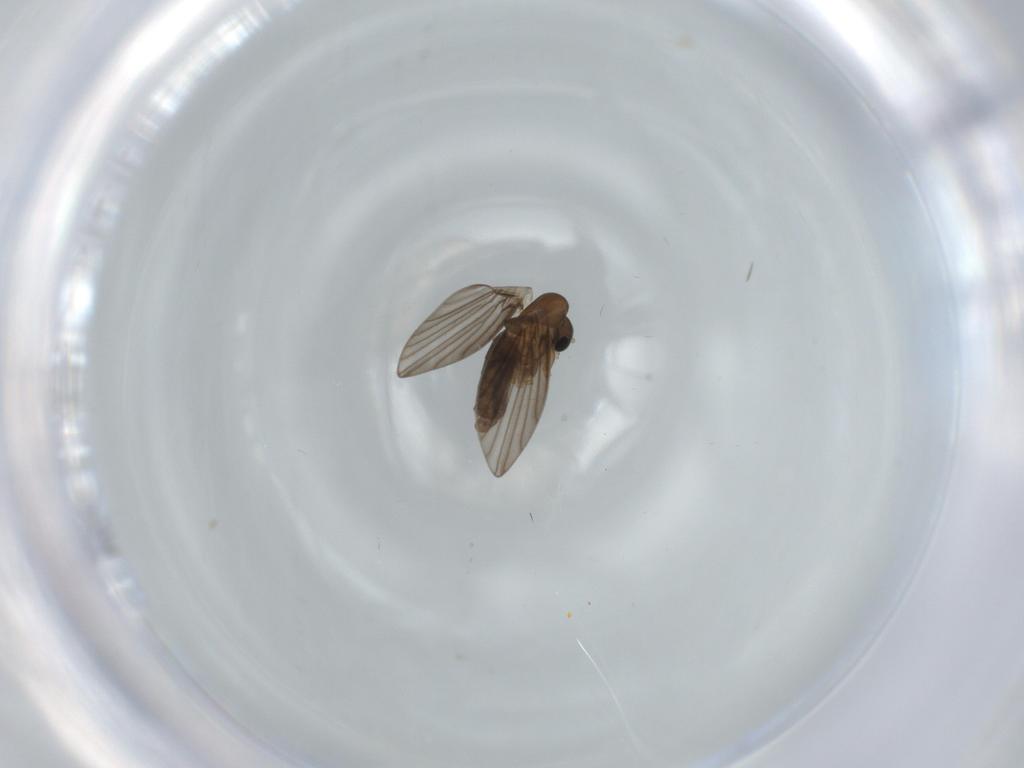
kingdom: Animalia
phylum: Arthropoda
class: Insecta
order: Diptera
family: Psychodidae
